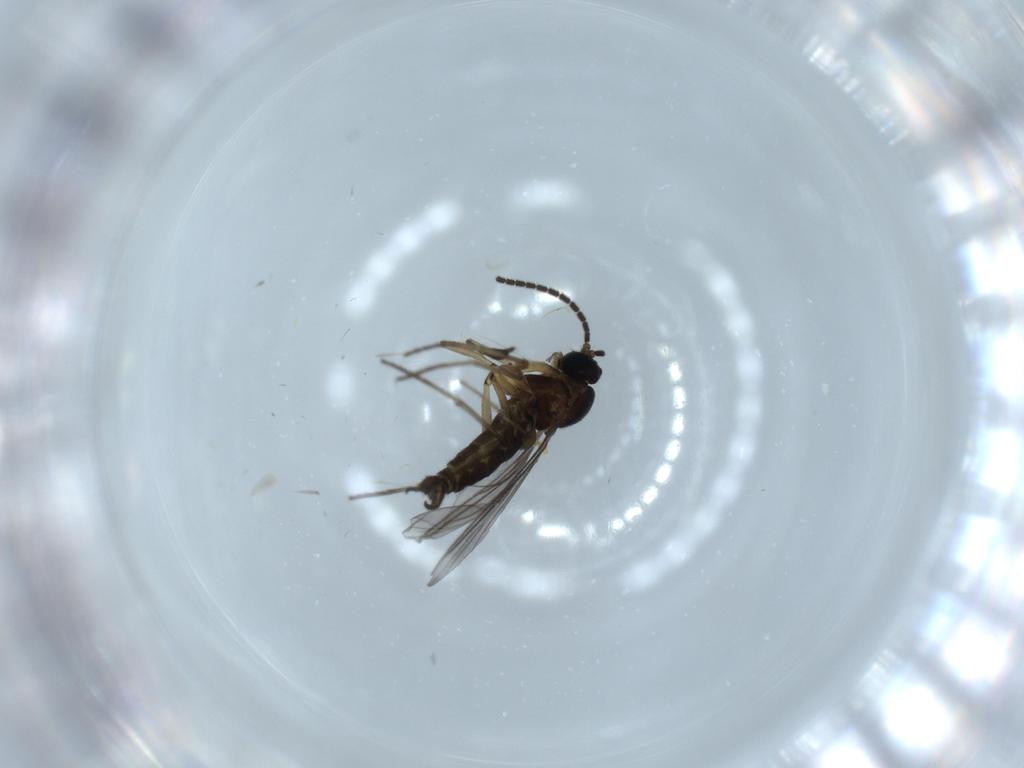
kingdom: Animalia
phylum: Arthropoda
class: Insecta
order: Diptera
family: Sciaridae
